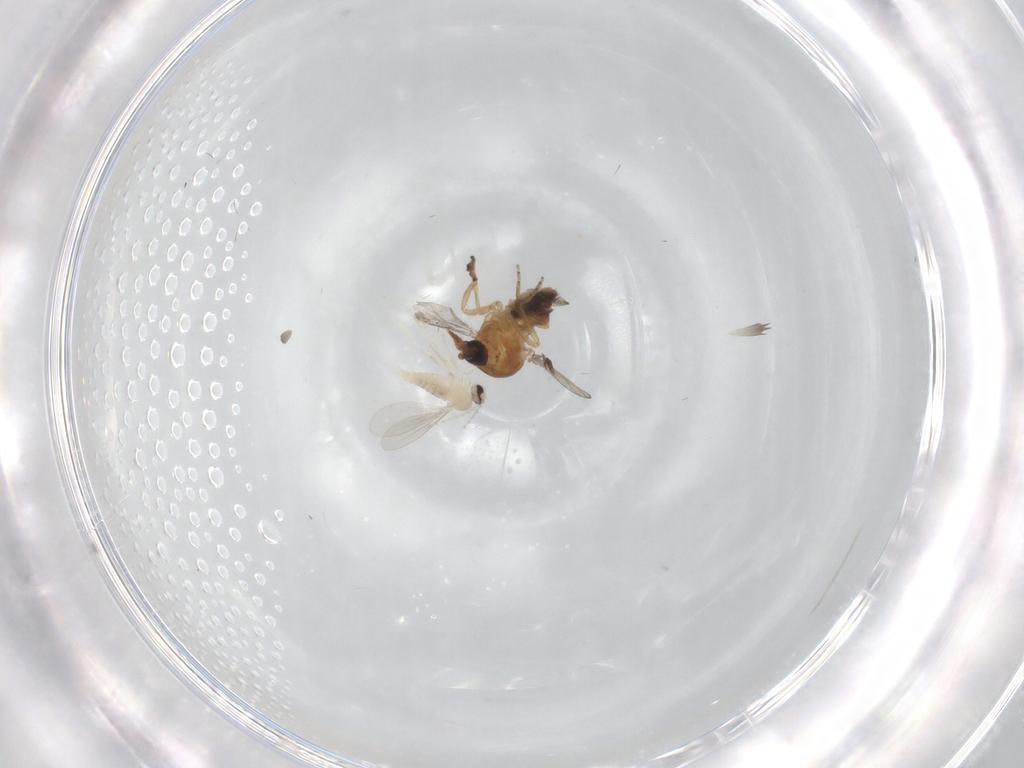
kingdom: Animalia
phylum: Arthropoda
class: Insecta
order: Diptera
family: Ceratopogonidae
